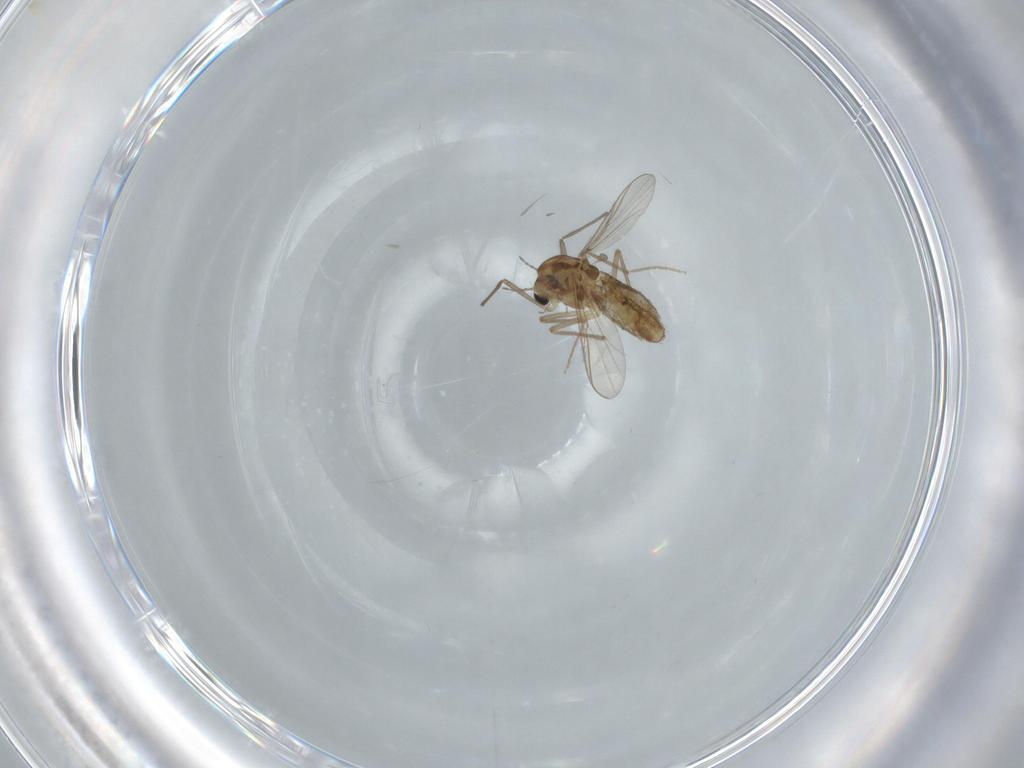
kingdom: Animalia
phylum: Arthropoda
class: Insecta
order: Diptera
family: Chironomidae
